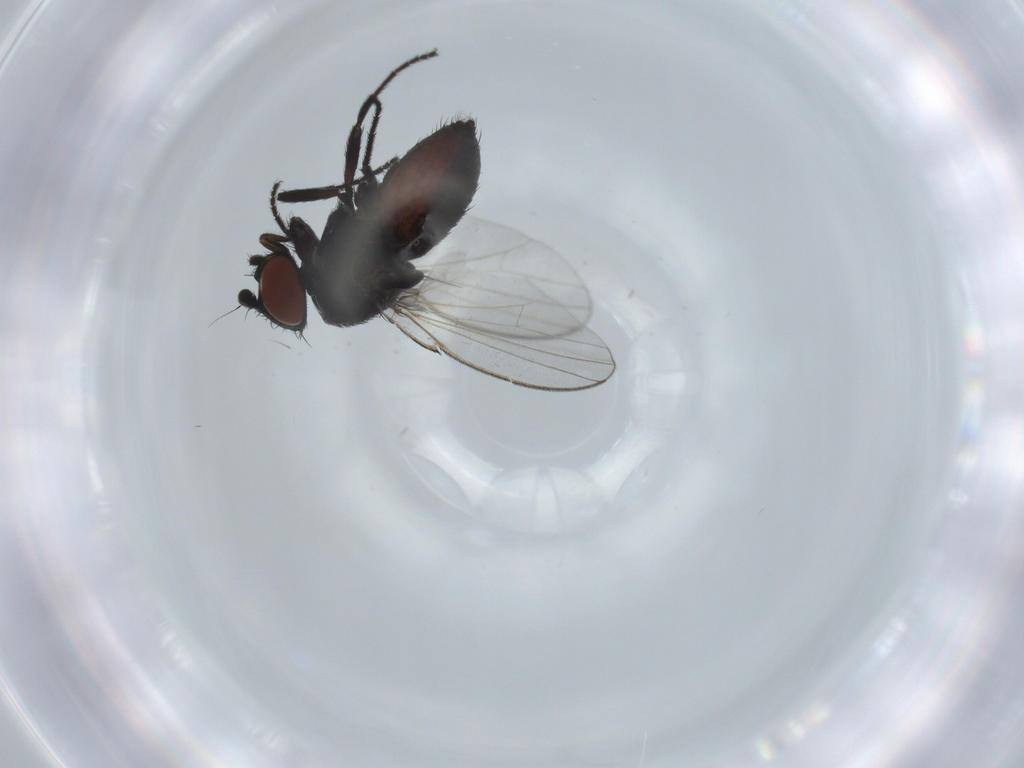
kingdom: Animalia
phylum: Arthropoda
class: Insecta
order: Diptera
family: Milichiidae
